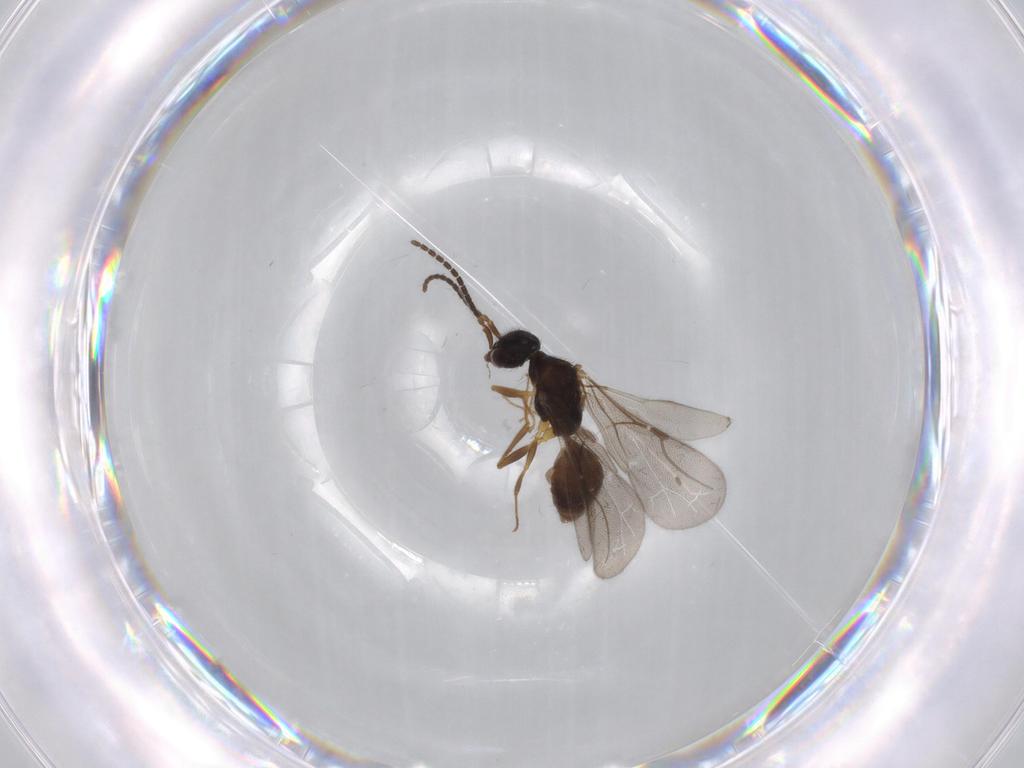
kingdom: Animalia
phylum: Arthropoda
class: Insecta
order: Hymenoptera
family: Bethylidae
